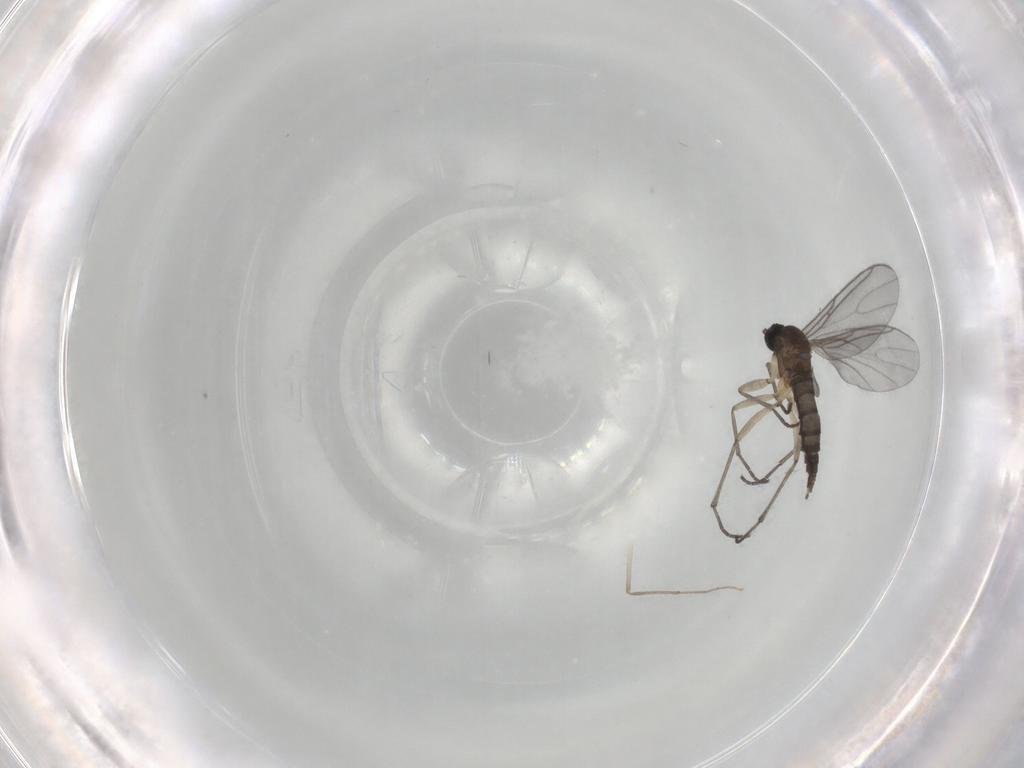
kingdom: Animalia
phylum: Arthropoda
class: Insecta
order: Diptera
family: Sciaridae
